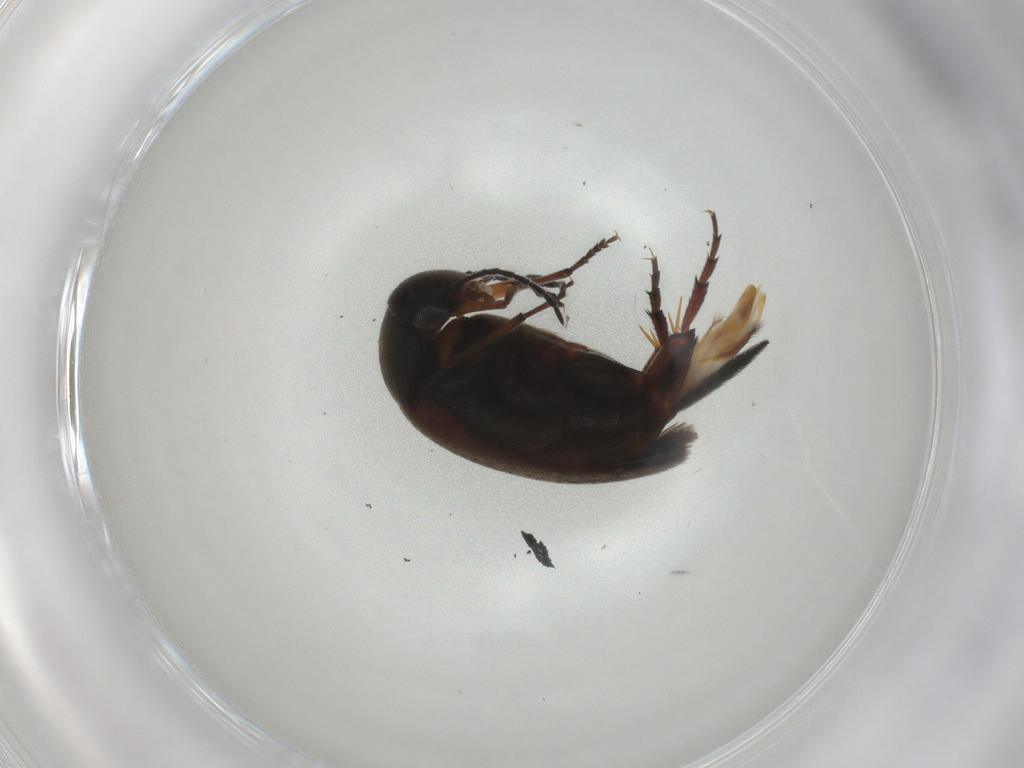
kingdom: Animalia
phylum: Arthropoda
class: Insecta
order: Coleoptera
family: Mordellidae
